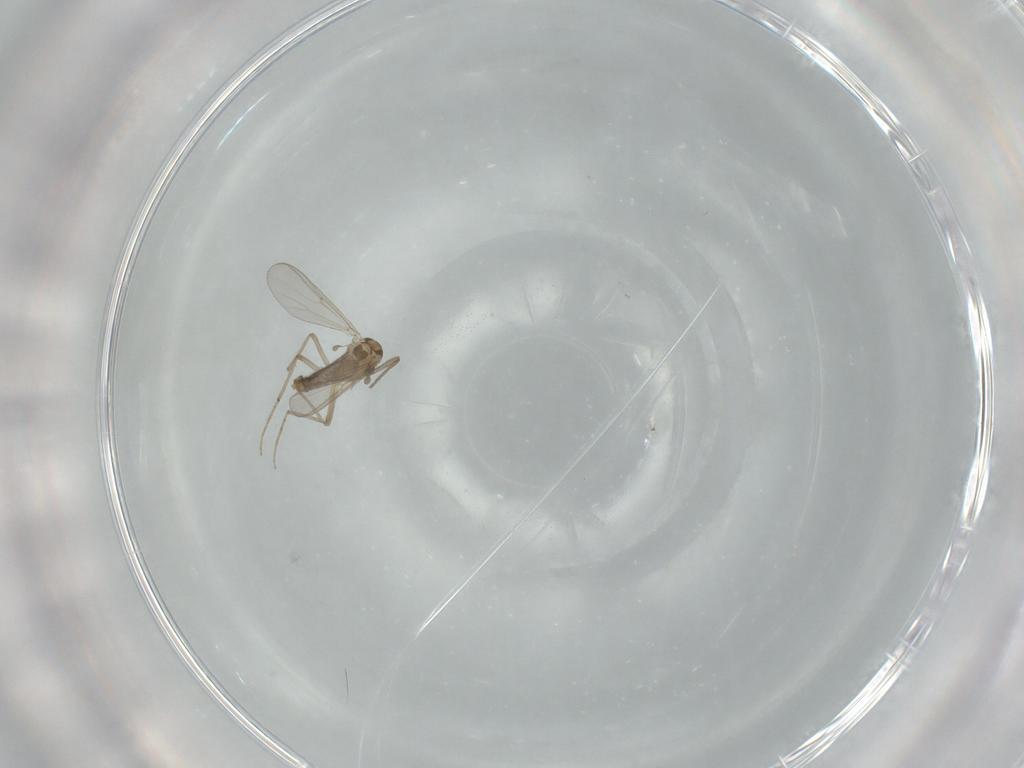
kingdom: Animalia
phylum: Arthropoda
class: Insecta
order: Diptera
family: Chironomidae
